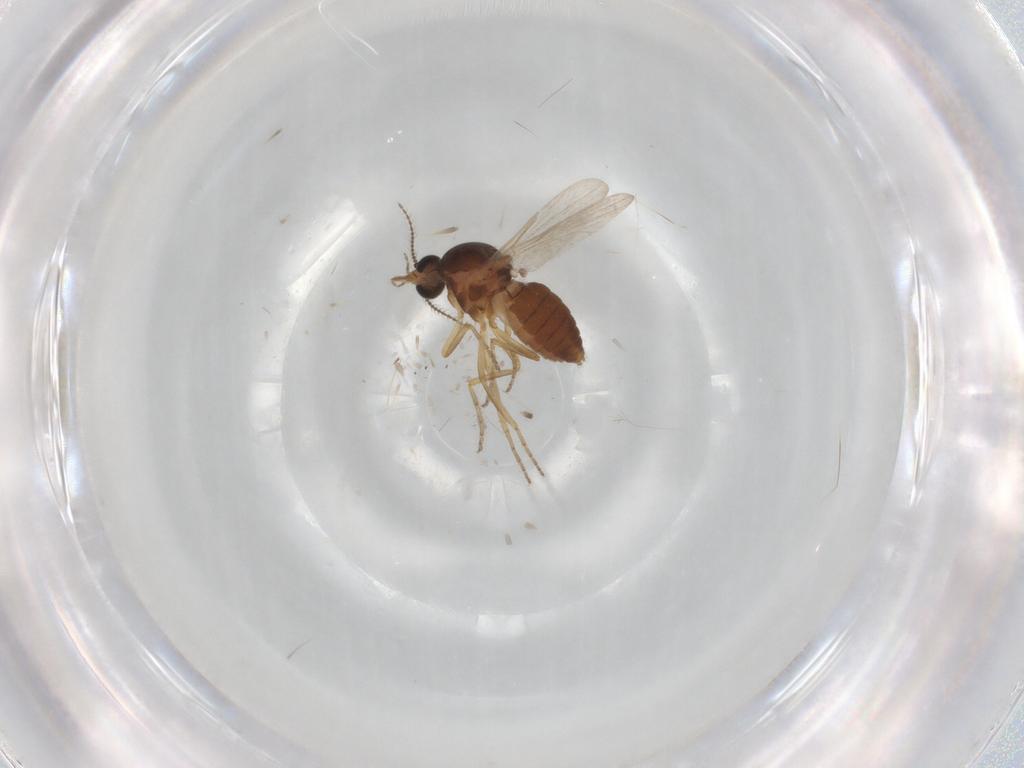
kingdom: Animalia
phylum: Arthropoda
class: Insecta
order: Diptera
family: Ceratopogonidae
